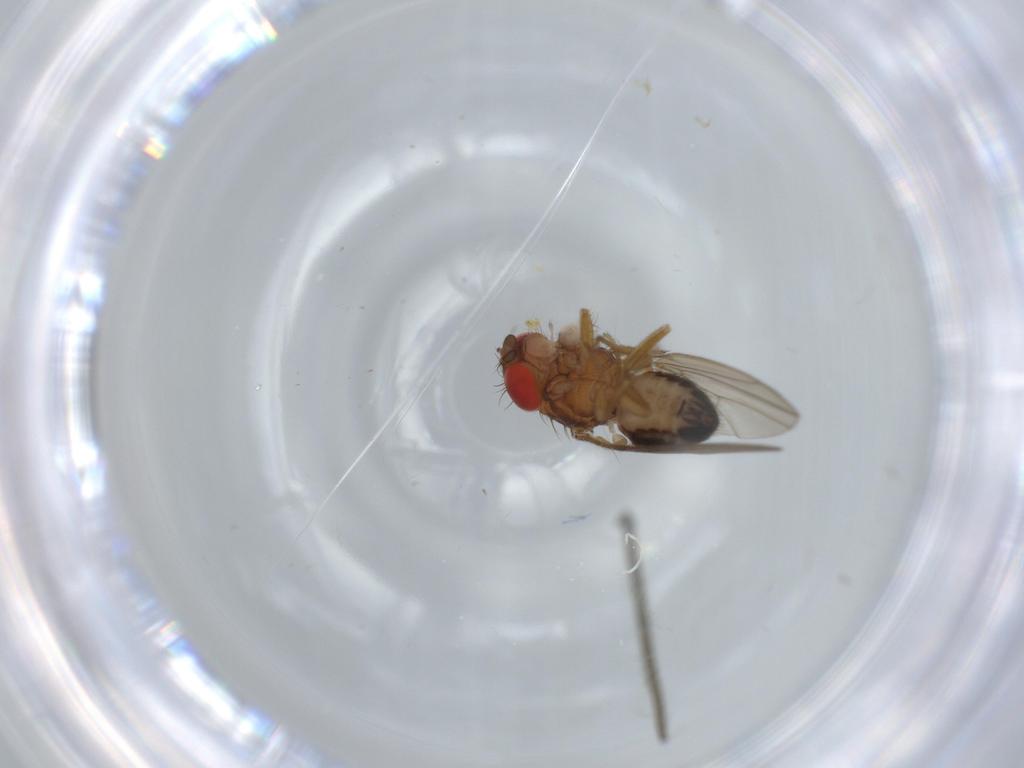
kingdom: Animalia
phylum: Arthropoda
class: Insecta
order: Diptera
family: Drosophilidae
